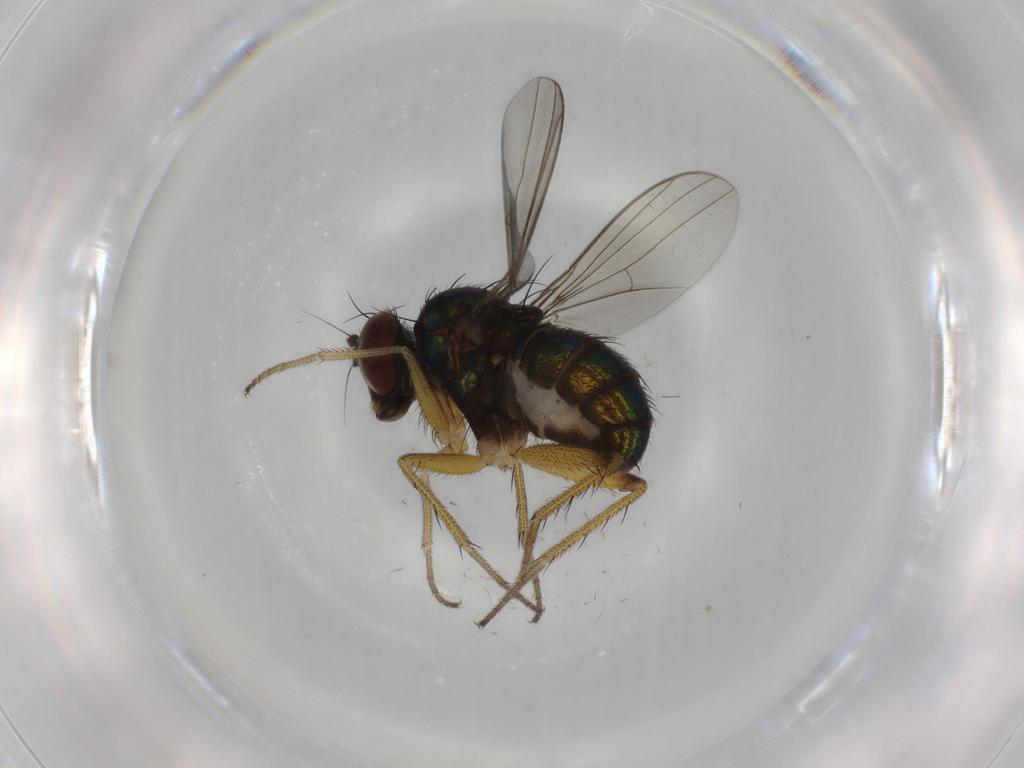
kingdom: Animalia
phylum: Arthropoda
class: Insecta
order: Diptera
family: Dolichopodidae
